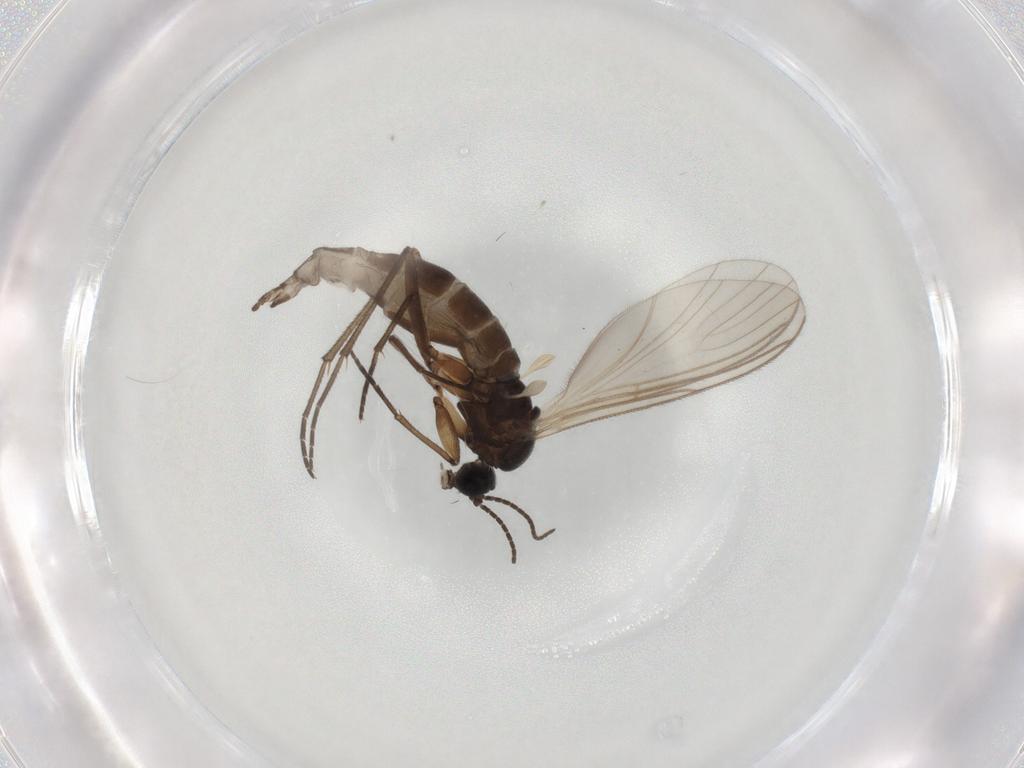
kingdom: Animalia
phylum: Arthropoda
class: Insecta
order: Diptera
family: Sciaridae
